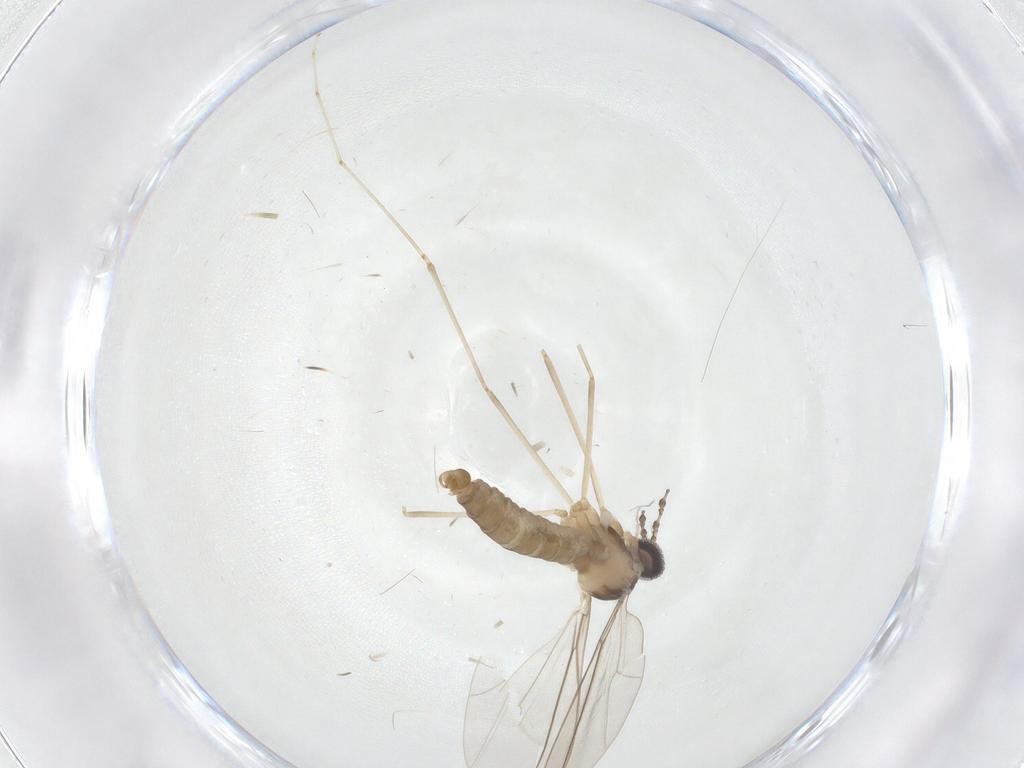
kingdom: Animalia
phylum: Arthropoda
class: Insecta
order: Diptera
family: Cecidomyiidae
